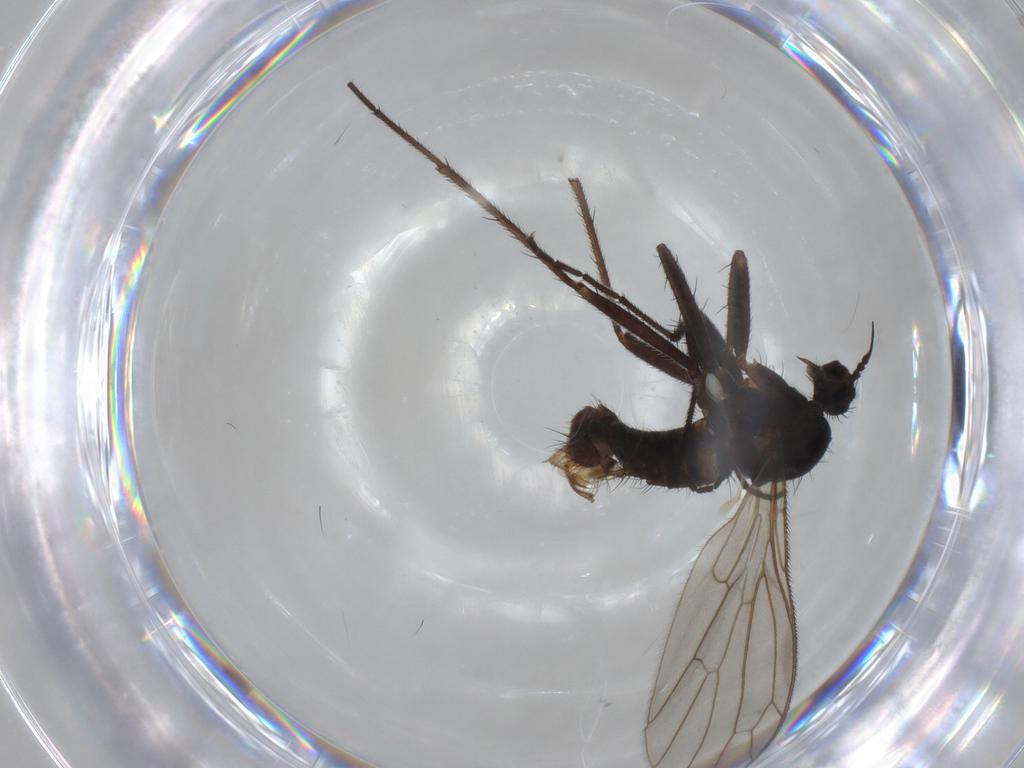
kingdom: Animalia
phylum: Arthropoda
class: Insecta
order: Diptera
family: Empididae
